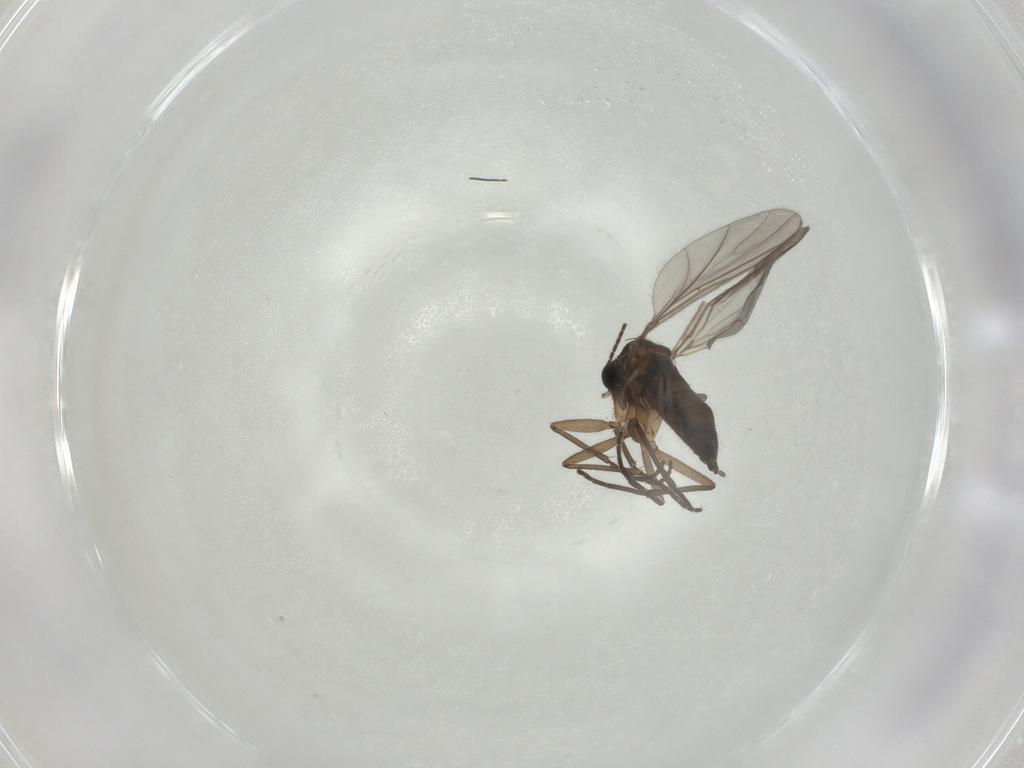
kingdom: Animalia
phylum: Arthropoda
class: Insecta
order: Diptera
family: Sciaridae
